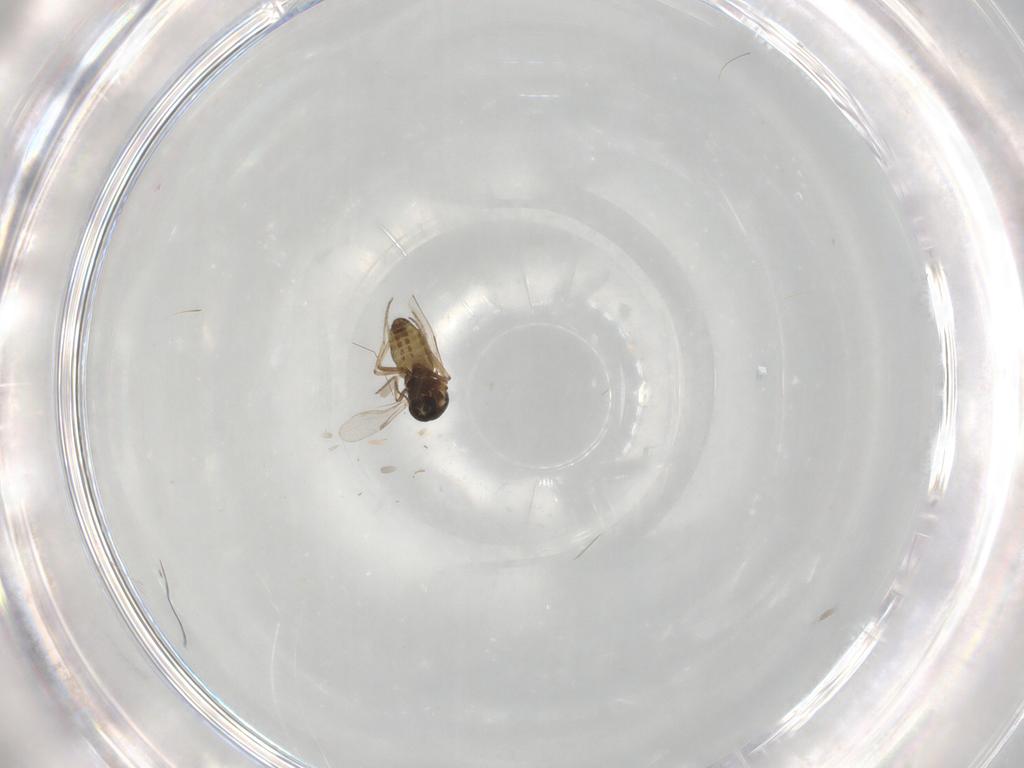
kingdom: Animalia
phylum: Arthropoda
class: Insecta
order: Diptera
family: Ceratopogonidae
